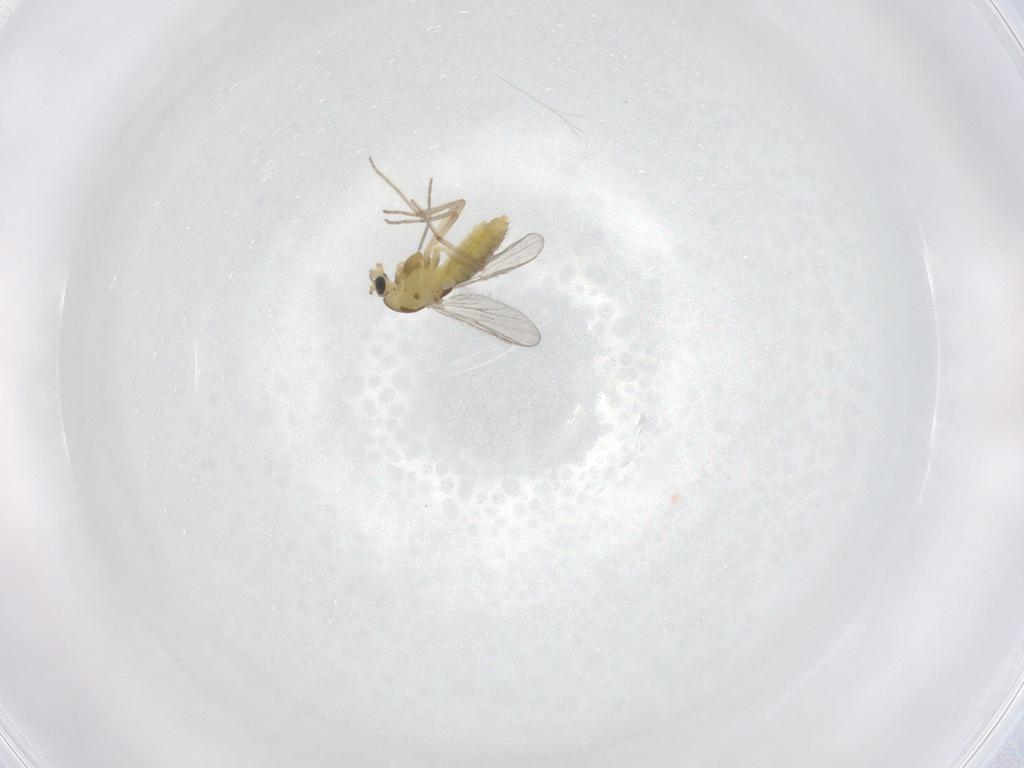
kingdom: Animalia
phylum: Arthropoda
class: Insecta
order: Diptera
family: Chironomidae
